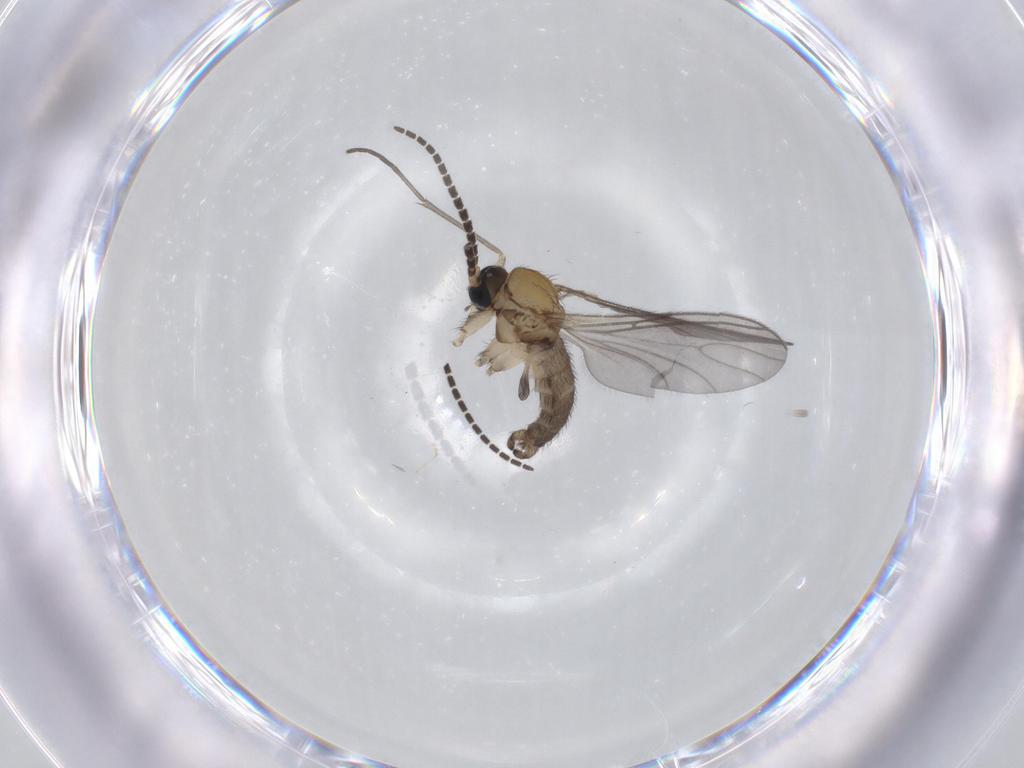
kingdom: Animalia
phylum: Arthropoda
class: Insecta
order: Diptera
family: Sciaridae
